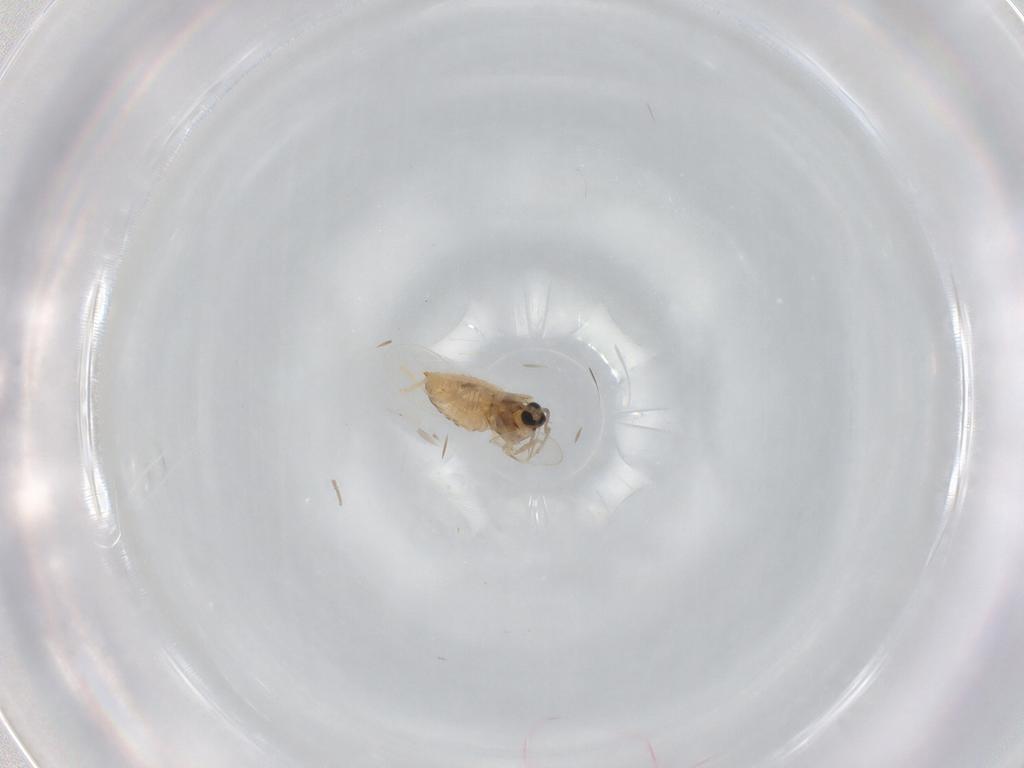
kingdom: Animalia
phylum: Arthropoda
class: Insecta
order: Diptera
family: Cecidomyiidae
